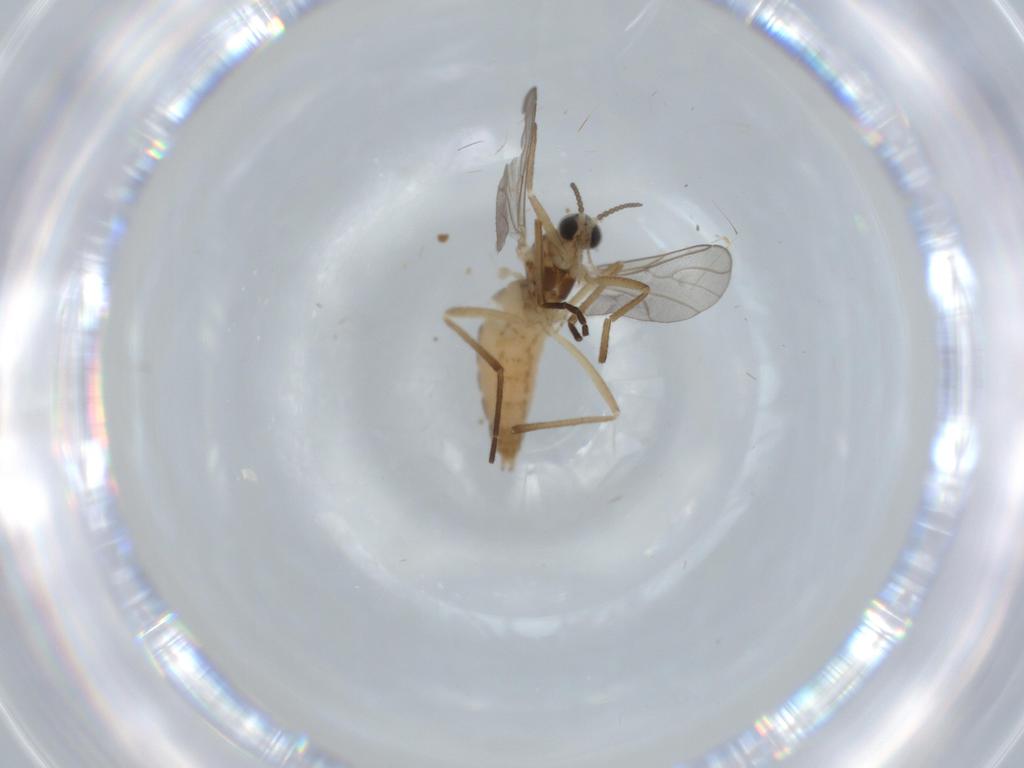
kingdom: Animalia
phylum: Arthropoda
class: Insecta
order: Diptera
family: Cecidomyiidae
